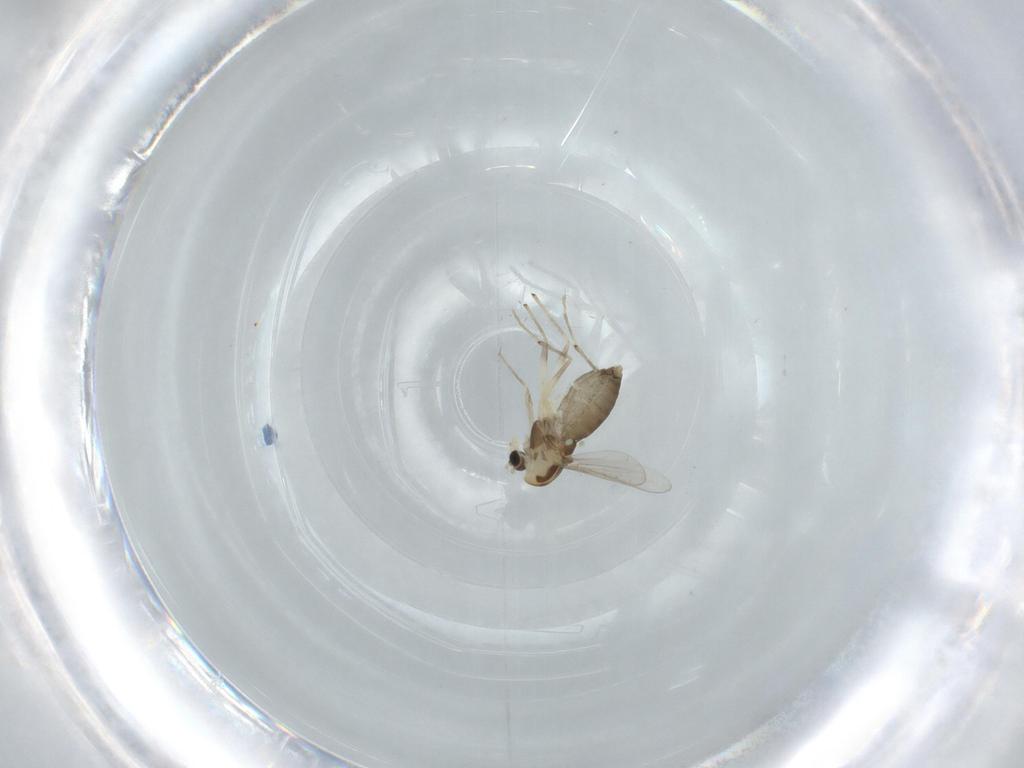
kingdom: Animalia
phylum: Arthropoda
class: Insecta
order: Diptera
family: Chironomidae
